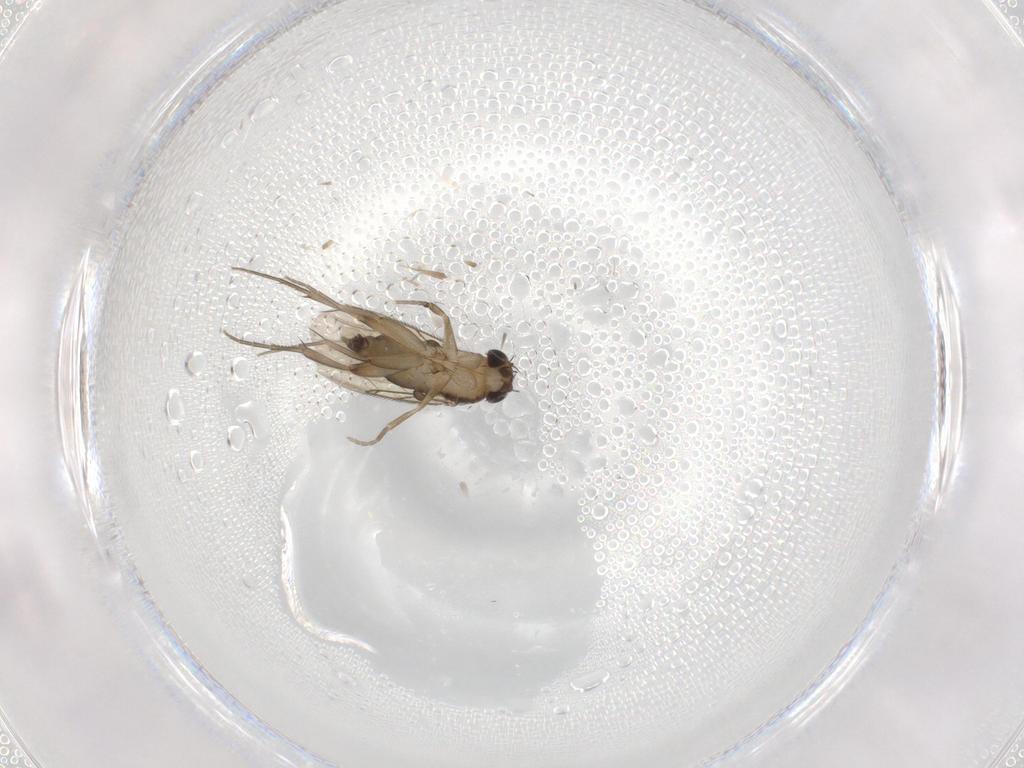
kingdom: Animalia
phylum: Arthropoda
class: Insecta
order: Diptera
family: Phoridae
